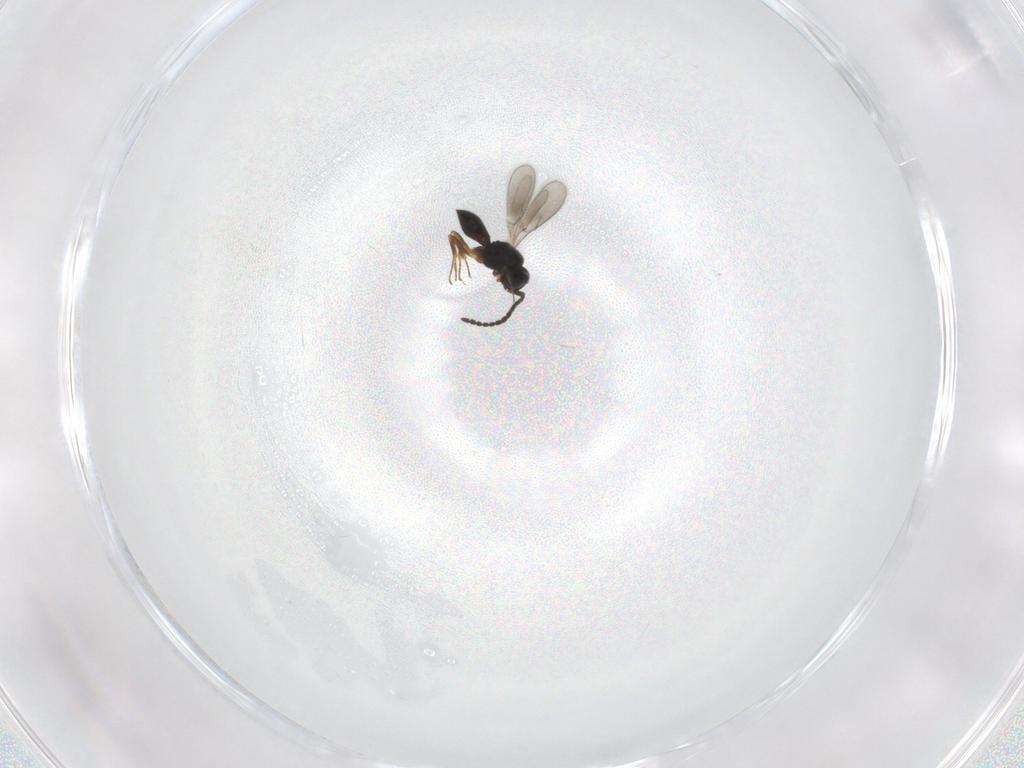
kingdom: Animalia
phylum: Arthropoda
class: Insecta
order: Hymenoptera
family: Scelionidae
